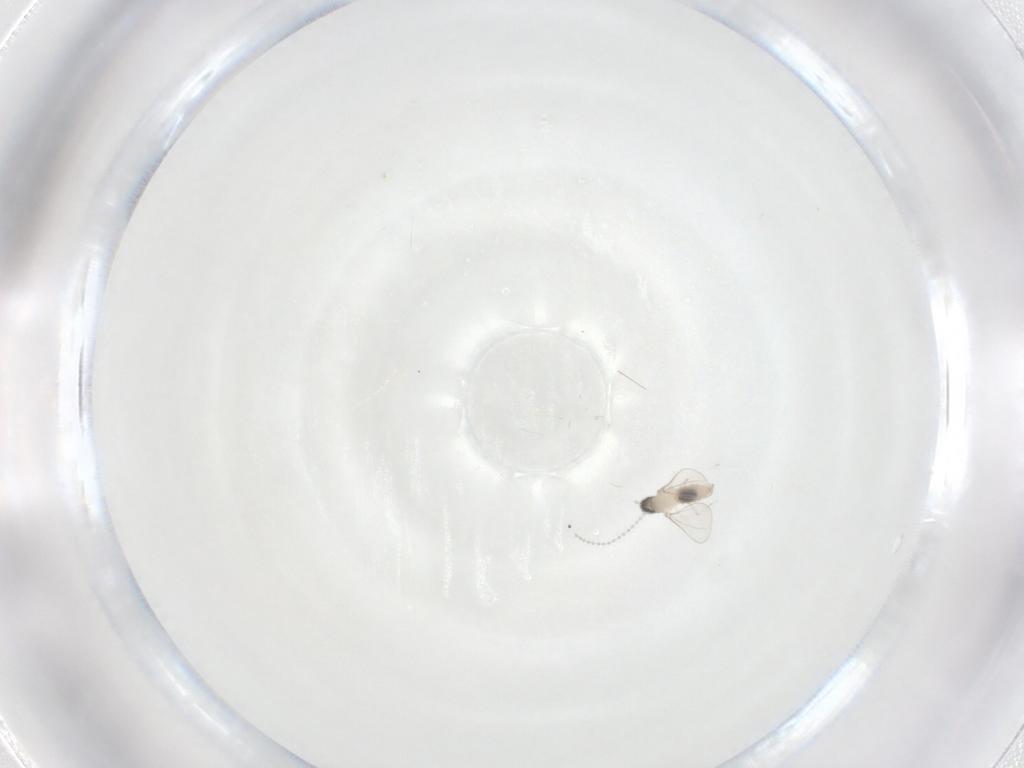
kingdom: Animalia
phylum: Arthropoda
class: Insecta
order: Diptera
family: Cecidomyiidae
